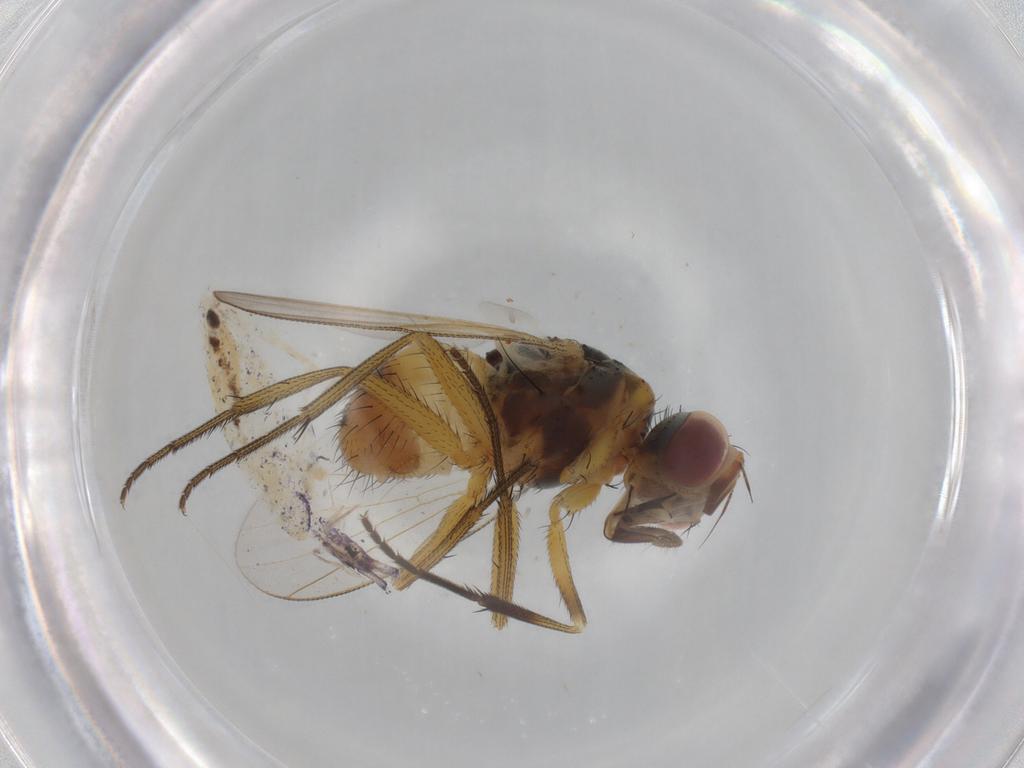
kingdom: Animalia
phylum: Arthropoda
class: Insecta
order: Diptera
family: Muscidae
